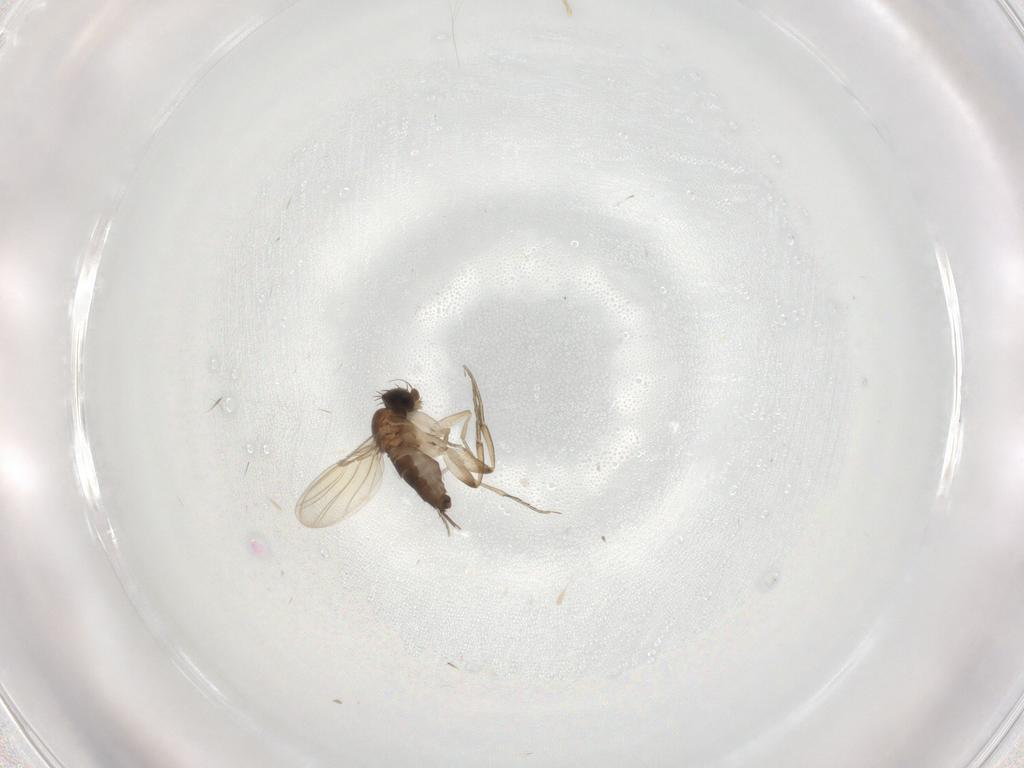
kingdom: Animalia
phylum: Arthropoda
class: Insecta
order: Diptera
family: Phoridae
